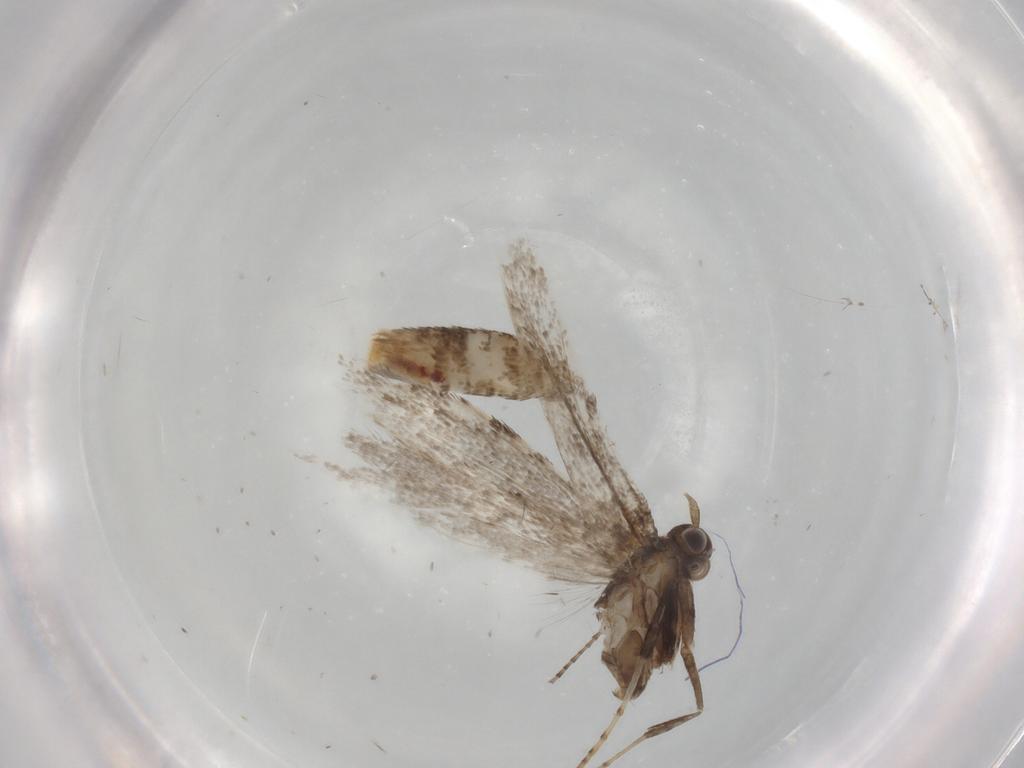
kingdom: Animalia
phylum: Arthropoda
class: Insecta
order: Lepidoptera
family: Gracillariidae
